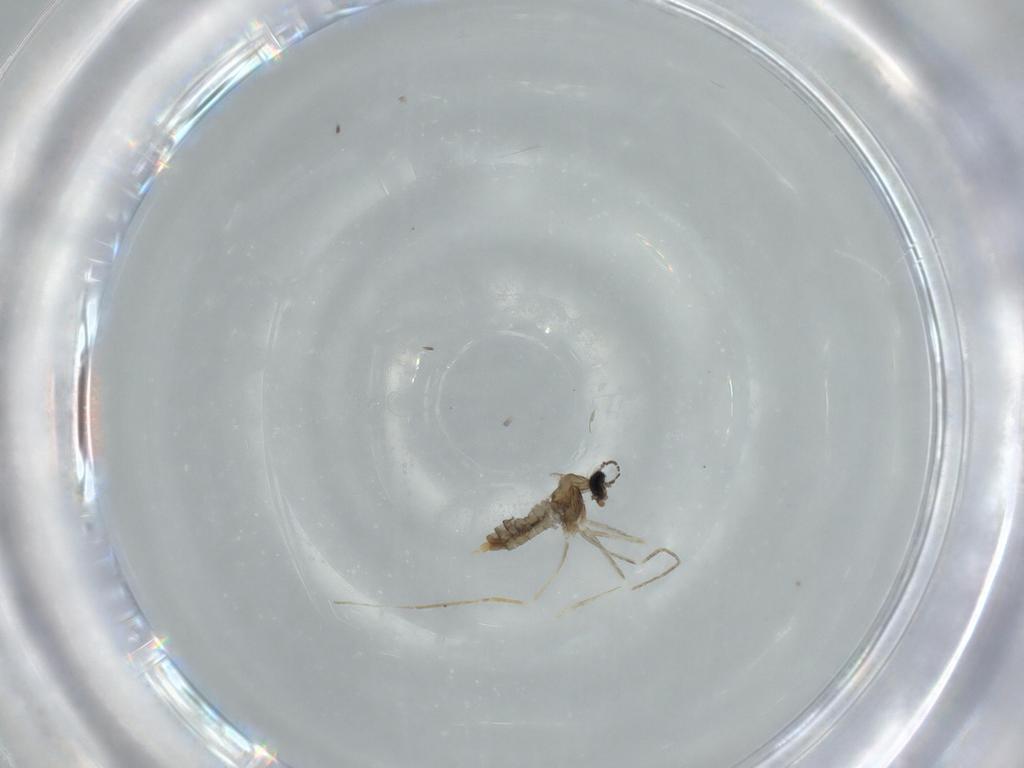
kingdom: Animalia
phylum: Arthropoda
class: Insecta
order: Diptera
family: Cecidomyiidae
